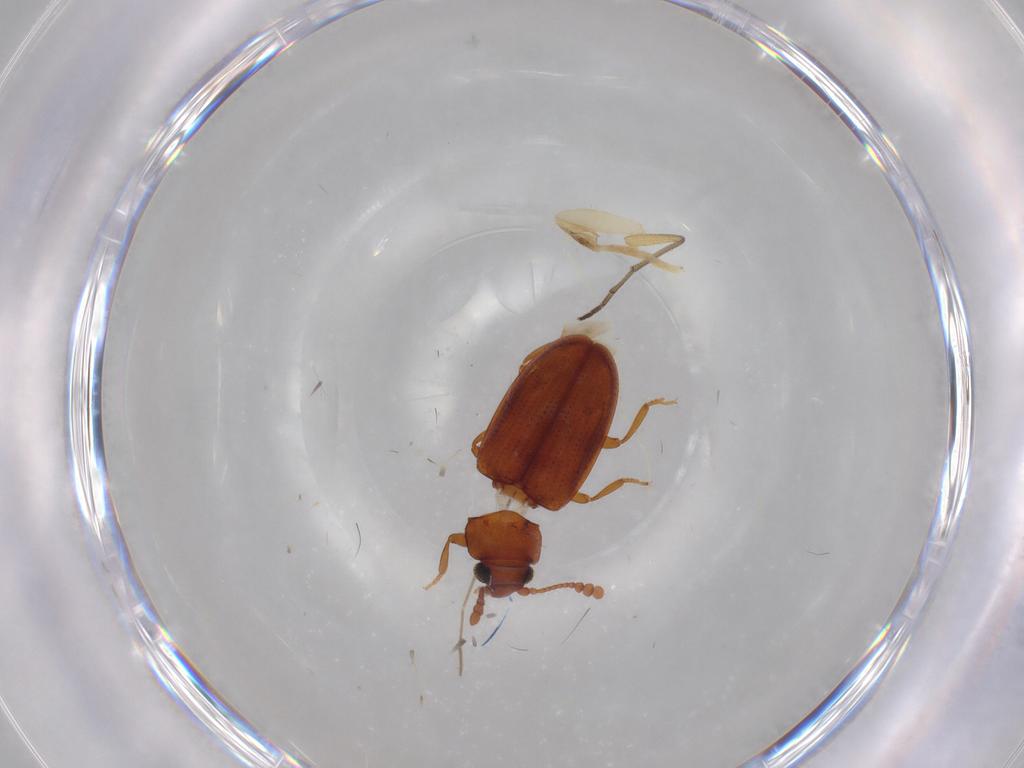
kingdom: Animalia
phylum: Arthropoda
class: Insecta
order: Coleoptera
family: Erotylidae
